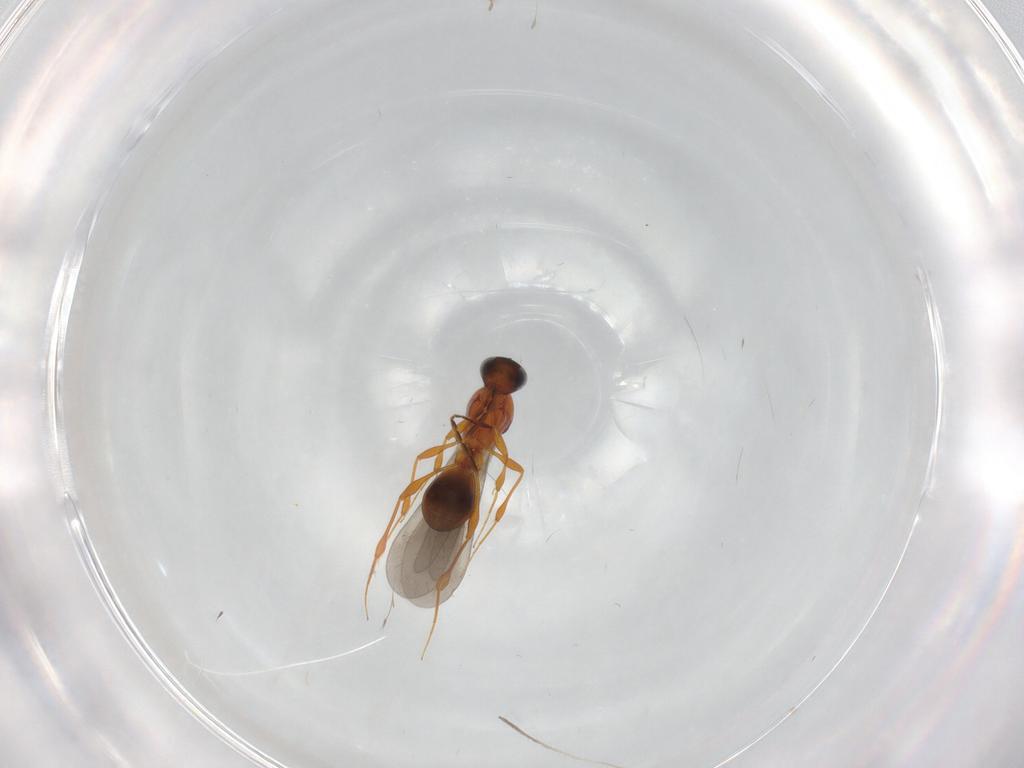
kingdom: Animalia
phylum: Arthropoda
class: Insecta
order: Hymenoptera
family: Platygastridae
